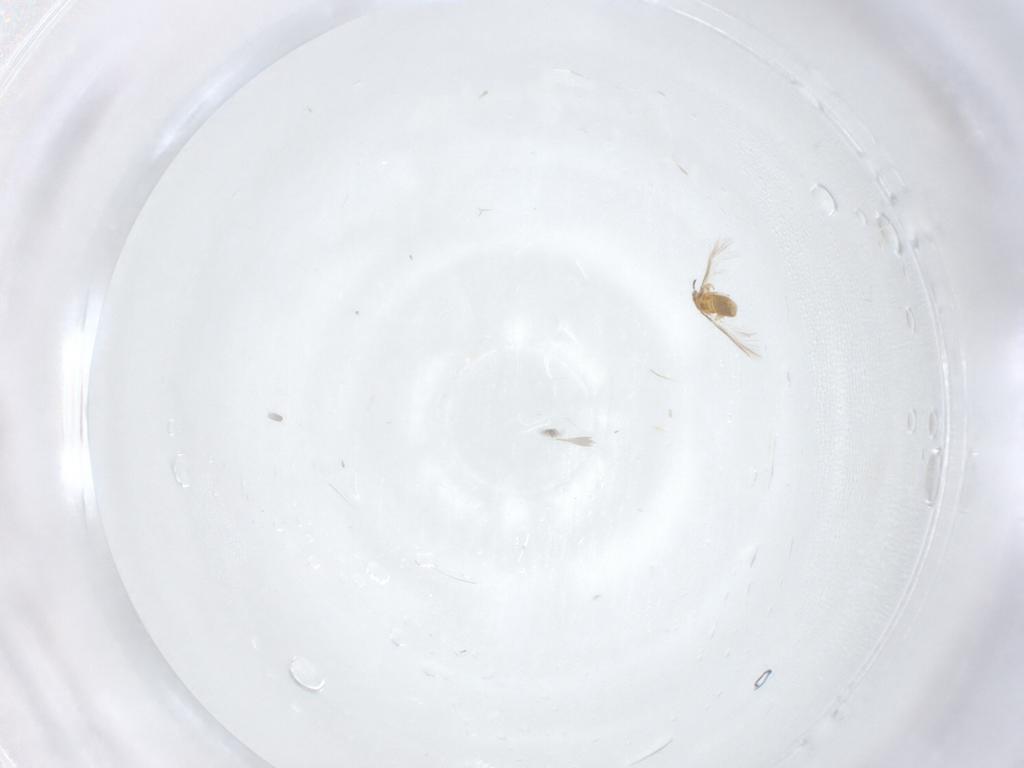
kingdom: Animalia
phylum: Arthropoda
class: Insecta
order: Thysanoptera
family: Thripidae
